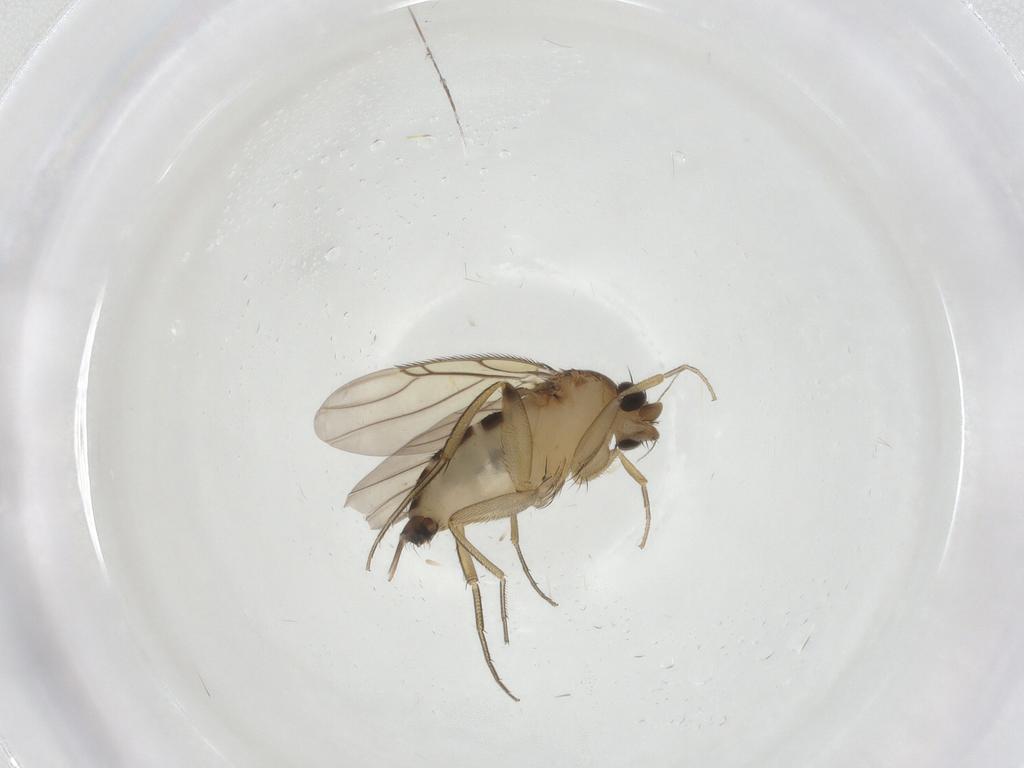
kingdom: Animalia
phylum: Arthropoda
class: Insecta
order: Diptera
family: Phoridae
